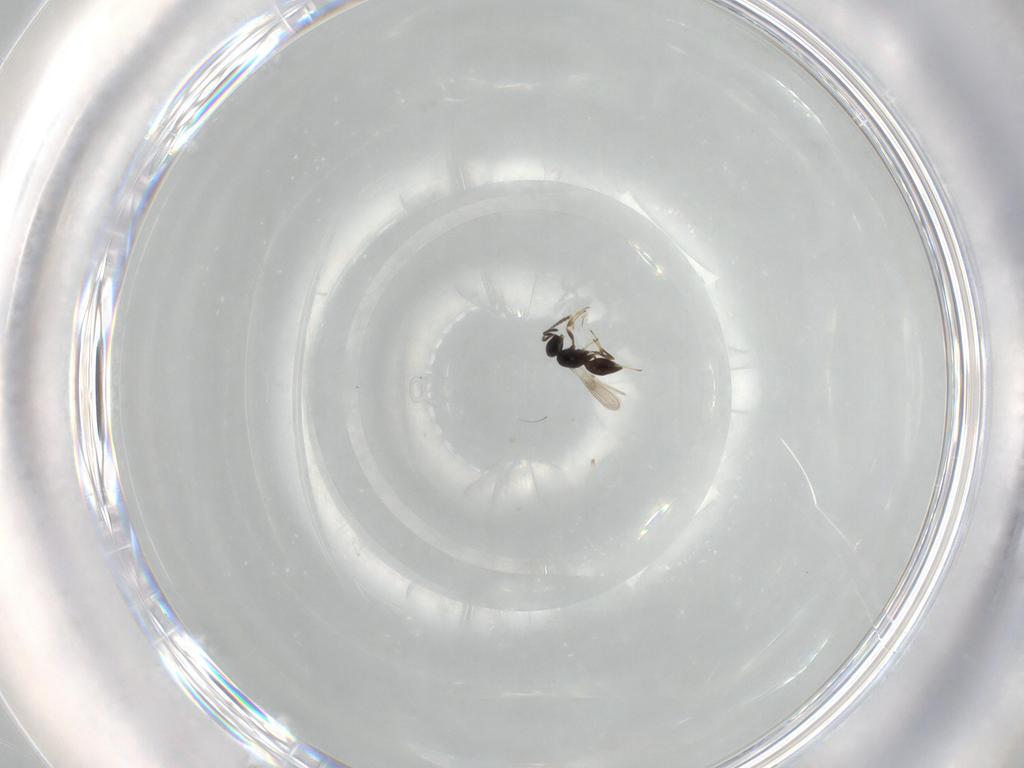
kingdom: Animalia
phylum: Arthropoda
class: Insecta
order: Hymenoptera
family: Scelionidae
